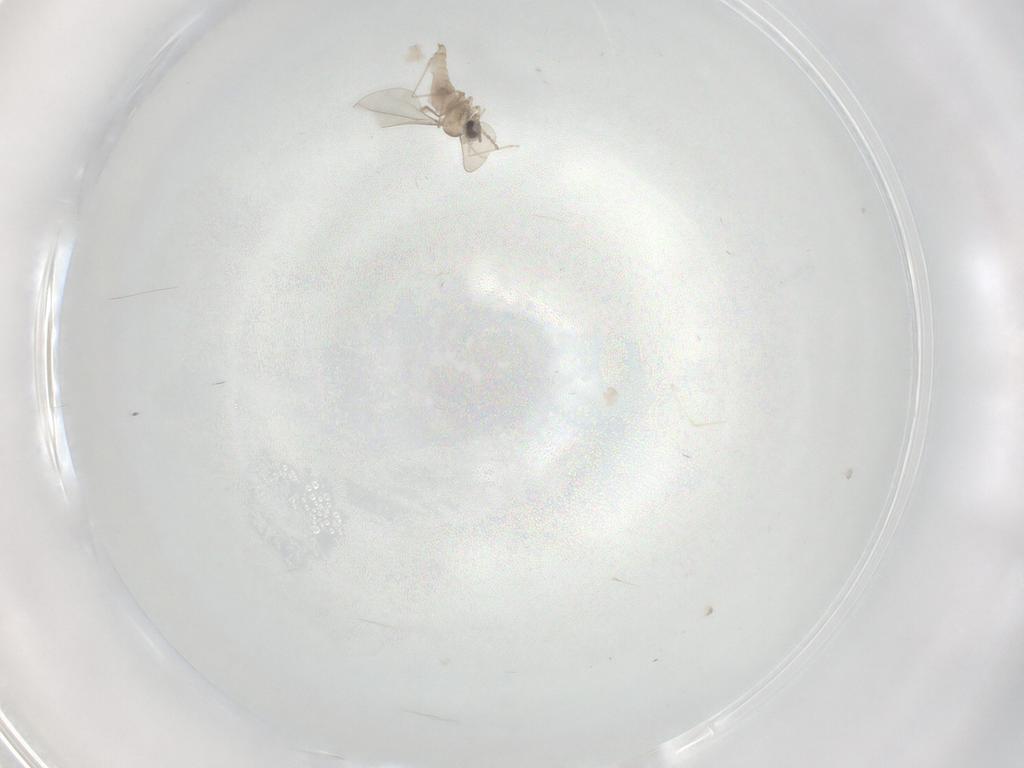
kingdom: Animalia
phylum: Arthropoda
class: Insecta
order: Diptera
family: Cecidomyiidae
